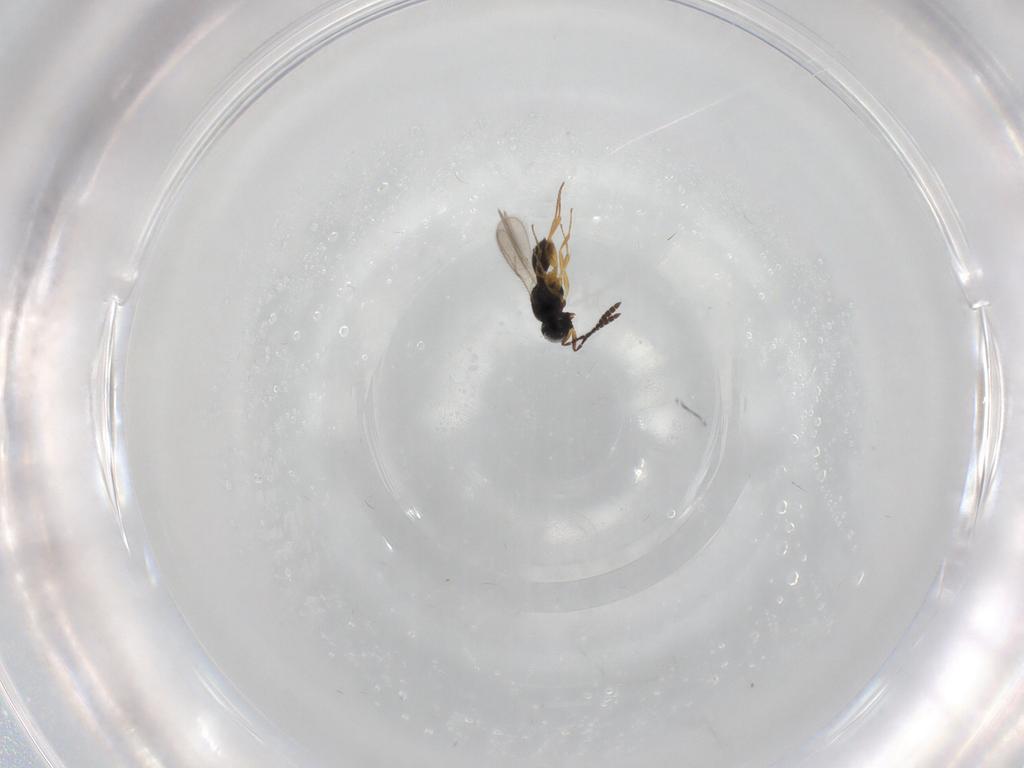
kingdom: Animalia
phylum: Arthropoda
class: Insecta
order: Hymenoptera
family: Scelionidae
